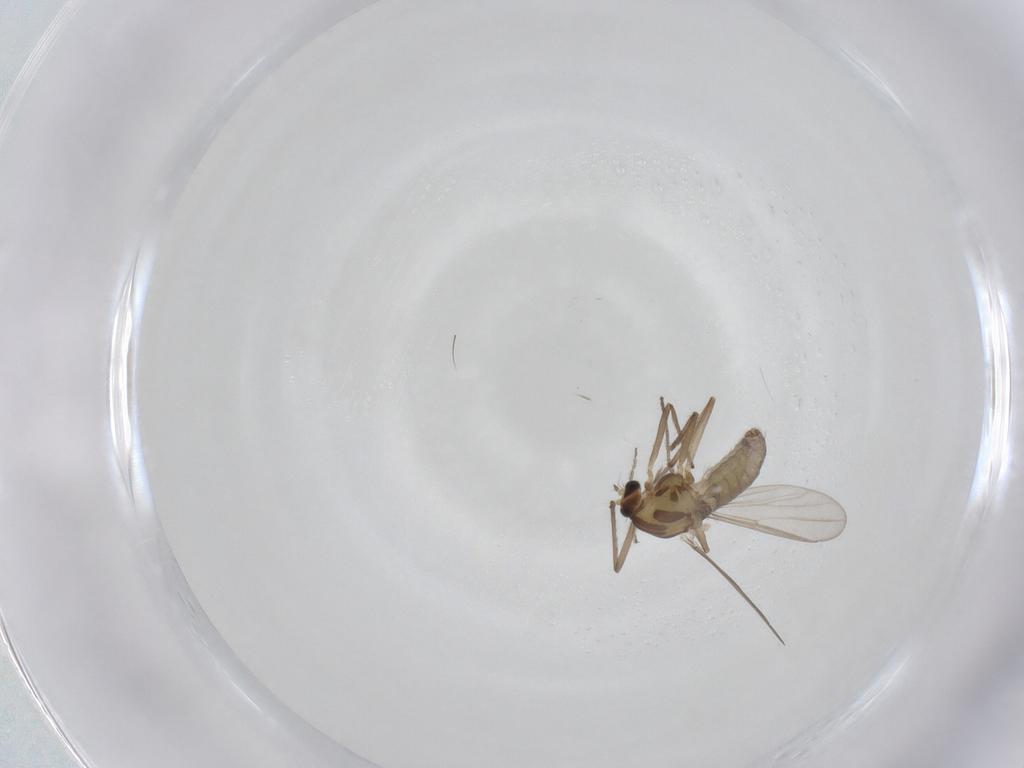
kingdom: Animalia
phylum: Arthropoda
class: Insecta
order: Diptera
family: Chironomidae
